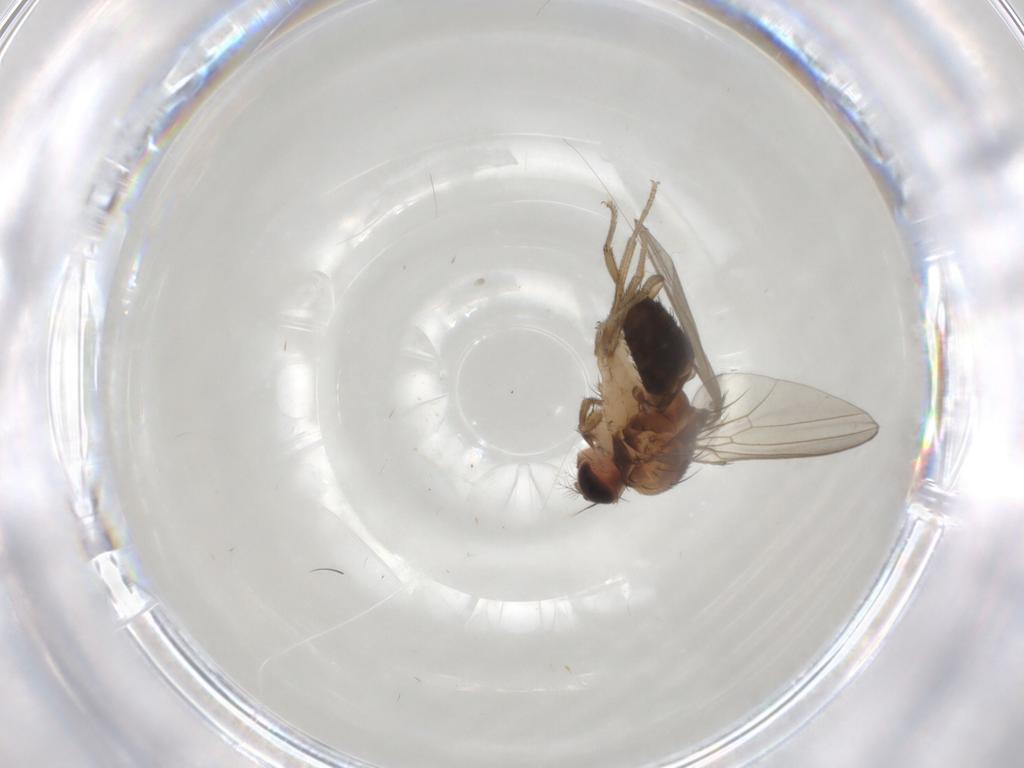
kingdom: Animalia
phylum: Arthropoda
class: Insecta
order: Diptera
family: Drosophilidae
